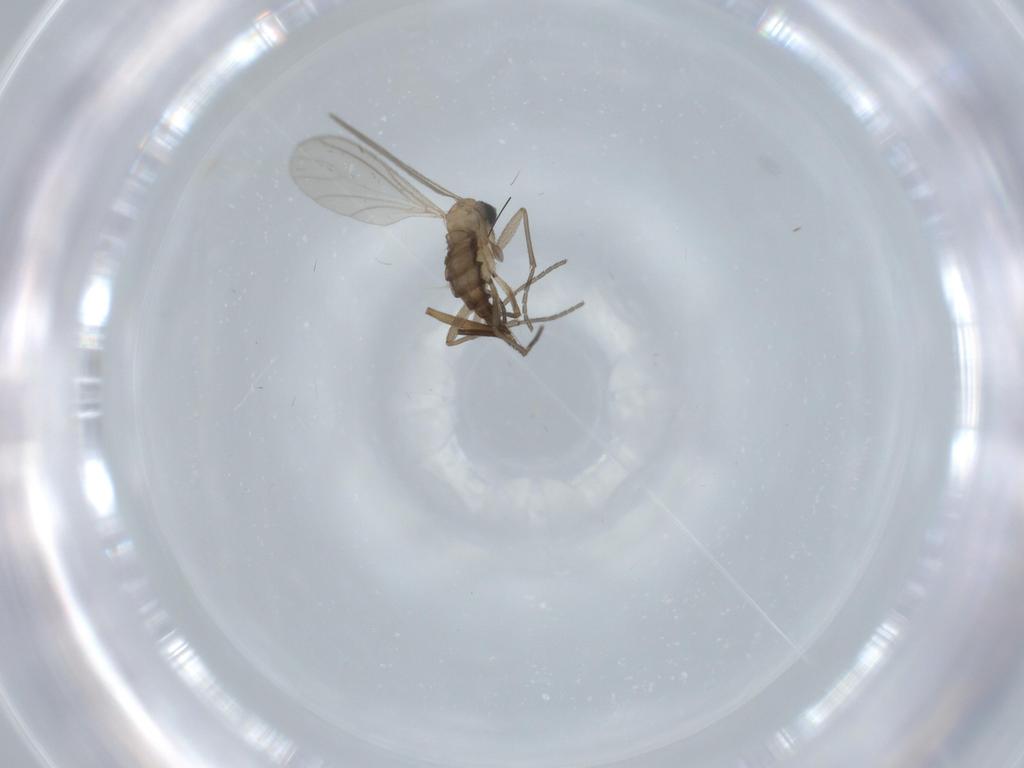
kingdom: Animalia
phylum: Arthropoda
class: Insecta
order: Diptera
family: Sciaridae
